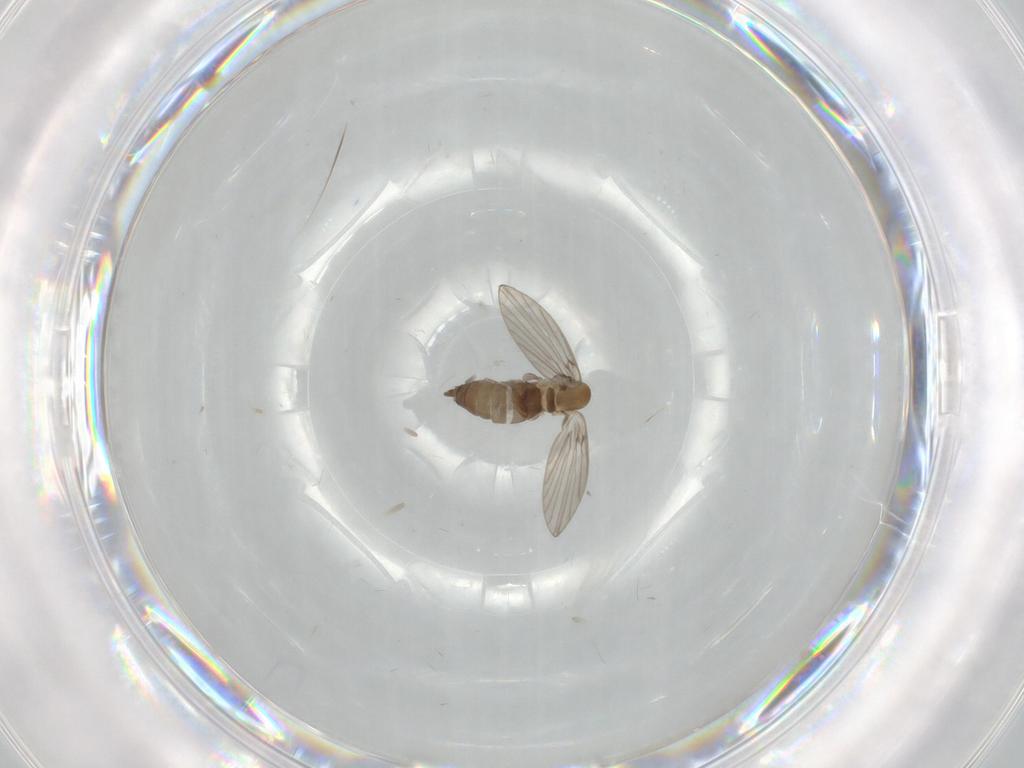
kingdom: Animalia
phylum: Arthropoda
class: Insecta
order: Diptera
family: Psychodidae
